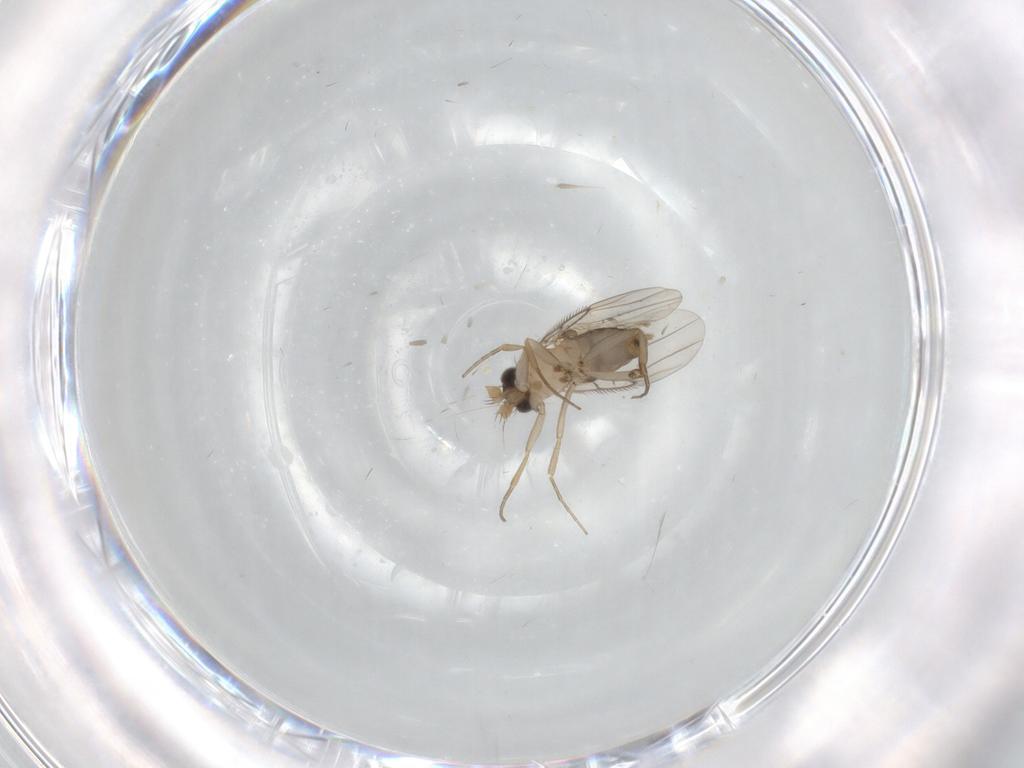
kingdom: Animalia
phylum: Arthropoda
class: Insecta
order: Diptera
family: Phoridae
